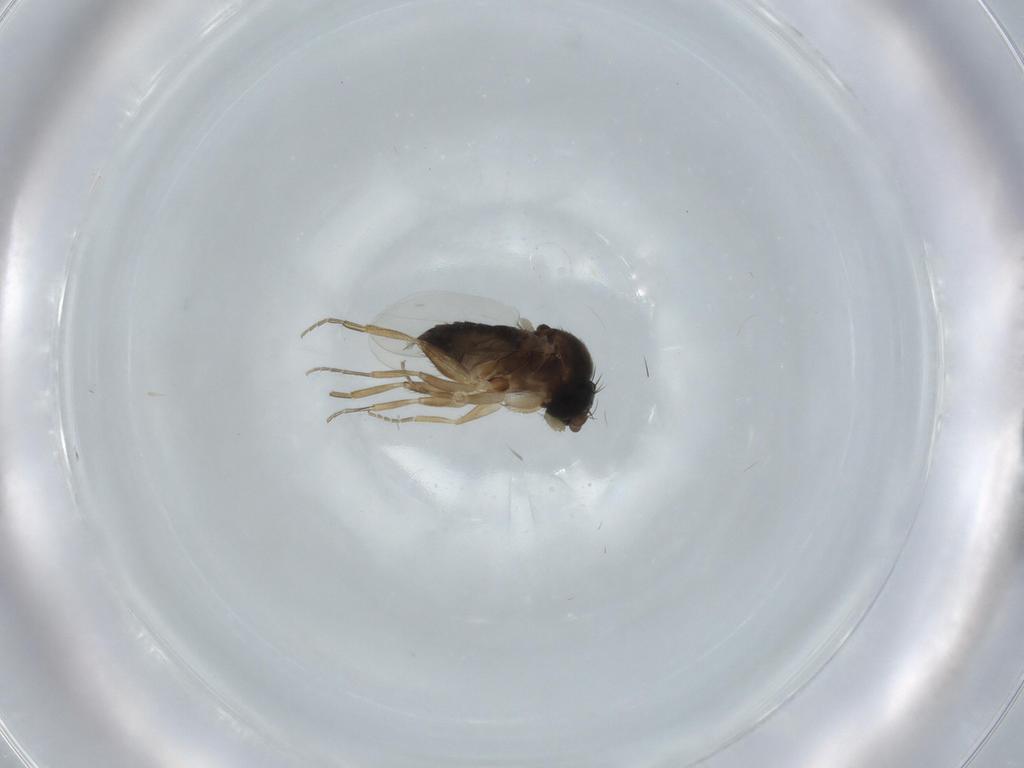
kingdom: Animalia
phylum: Arthropoda
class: Insecta
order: Diptera
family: Phoridae
